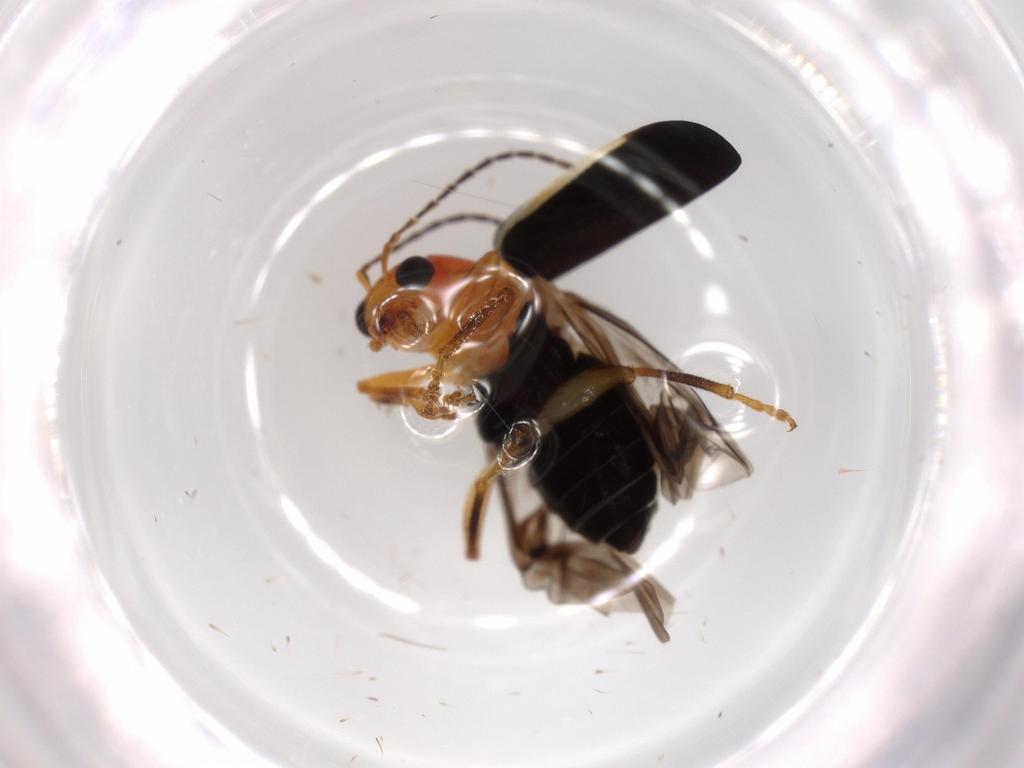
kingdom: Animalia
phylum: Arthropoda
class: Insecta
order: Coleoptera
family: Chrysomelidae
